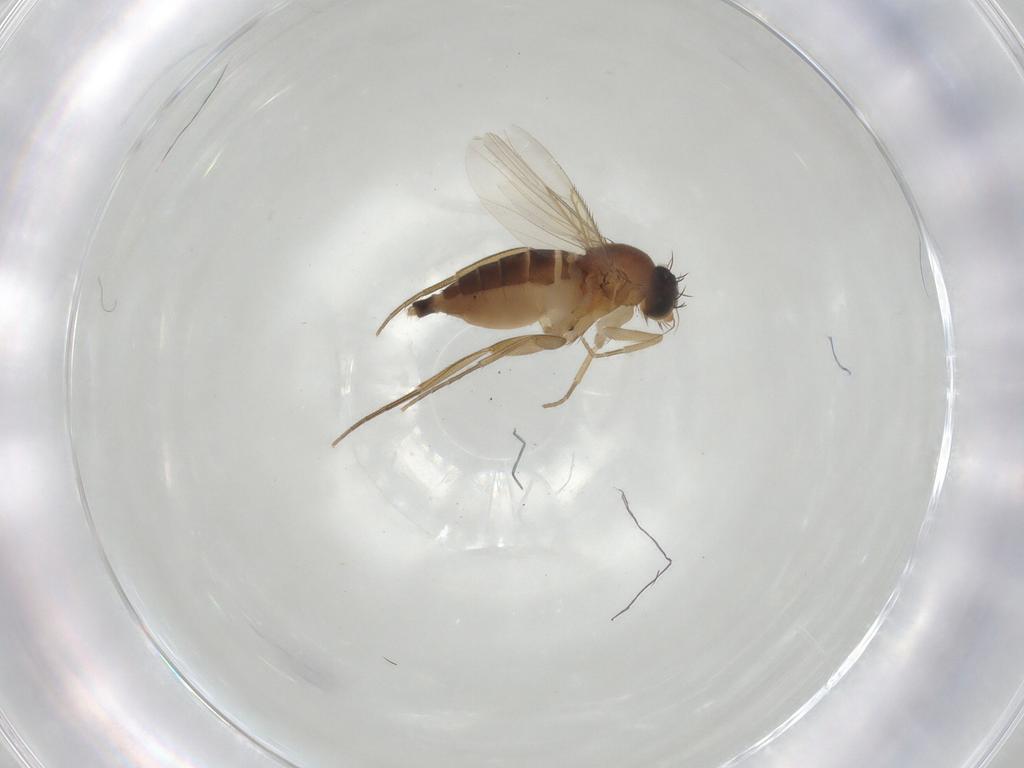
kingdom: Animalia
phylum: Arthropoda
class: Insecta
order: Diptera
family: Phoridae
